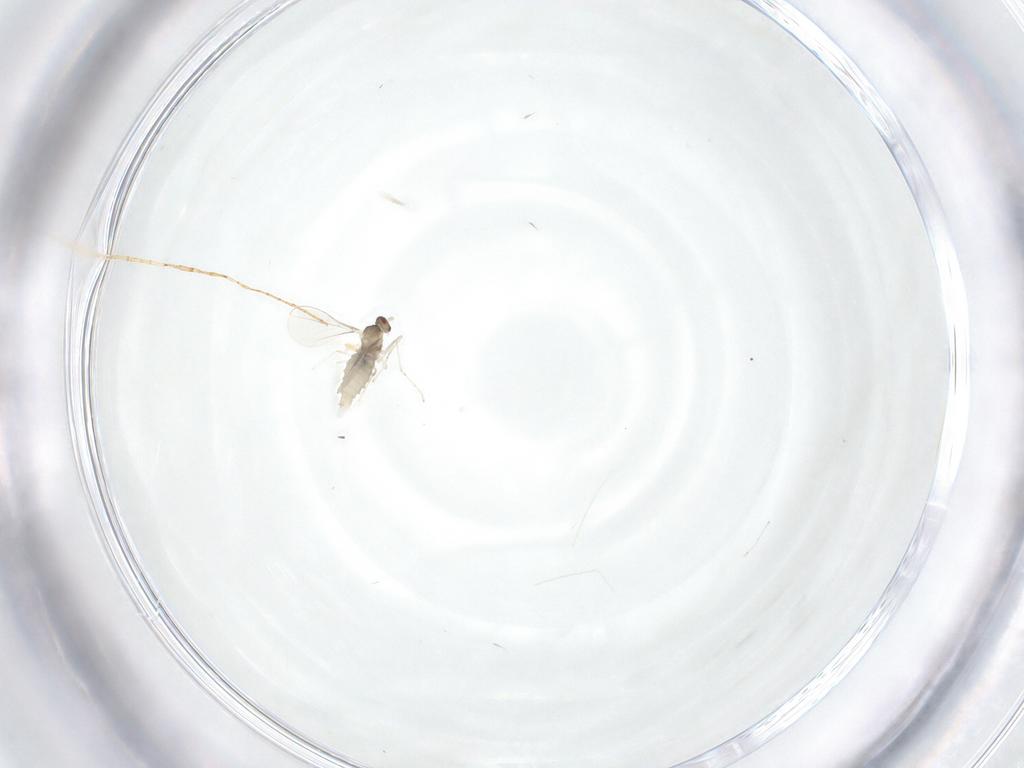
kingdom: Animalia
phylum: Arthropoda
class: Insecta
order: Diptera
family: Cecidomyiidae
